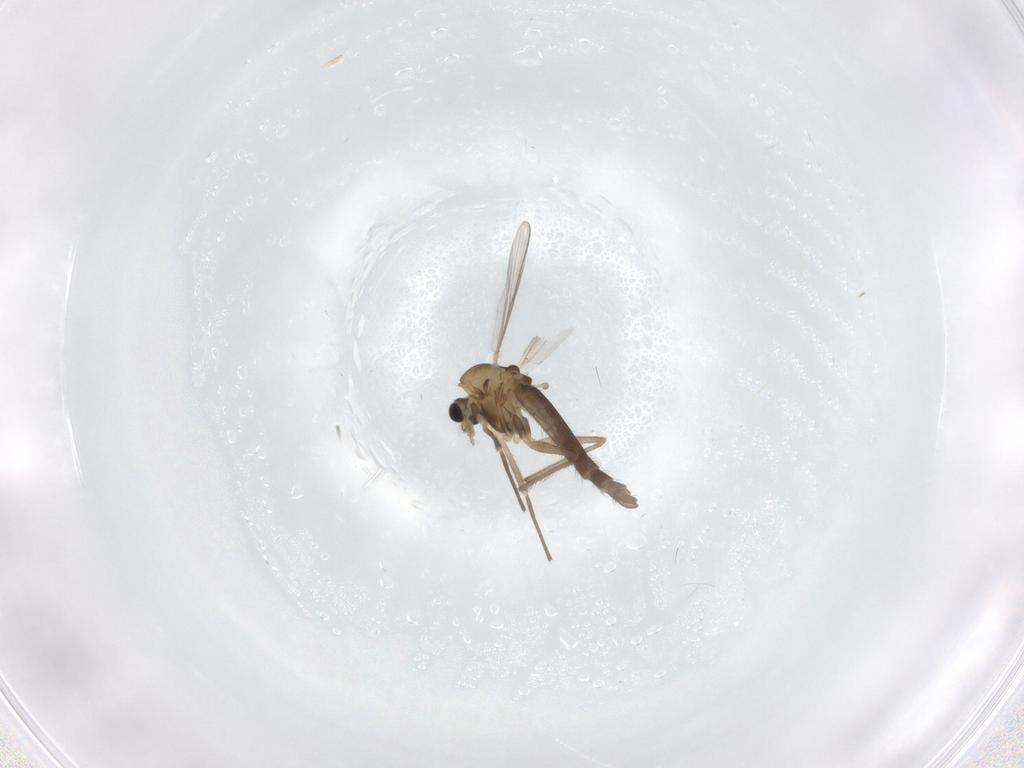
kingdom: Animalia
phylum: Arthropoda
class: Insecta
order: Diptera
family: Chironomidae
